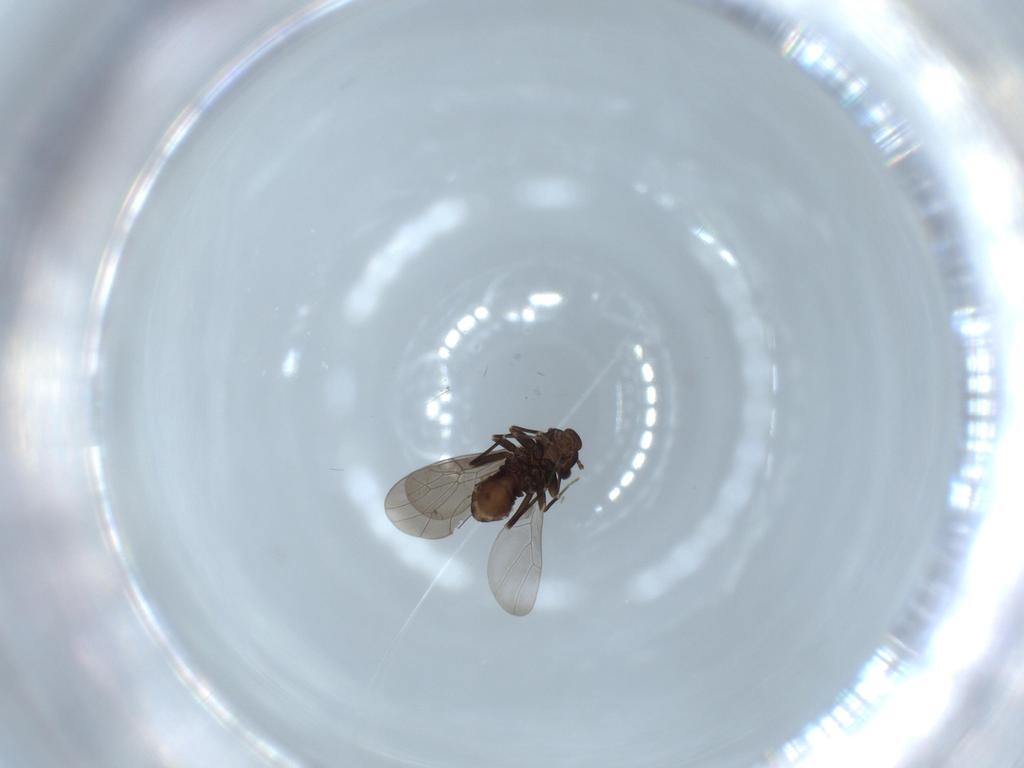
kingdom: Animalia
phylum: Arthropoda
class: Insecta
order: Psocodea
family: Lepidopsocidae
